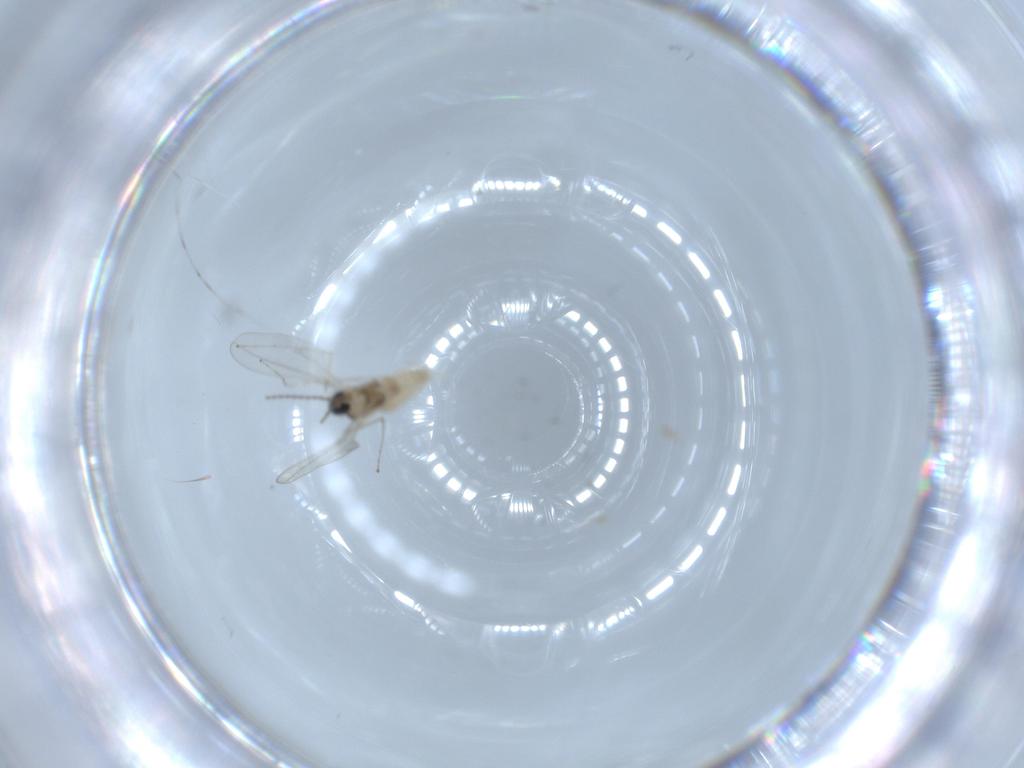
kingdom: Animalia
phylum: Arthropoda
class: Insecta
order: Diptera
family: Cecidomyiidae
